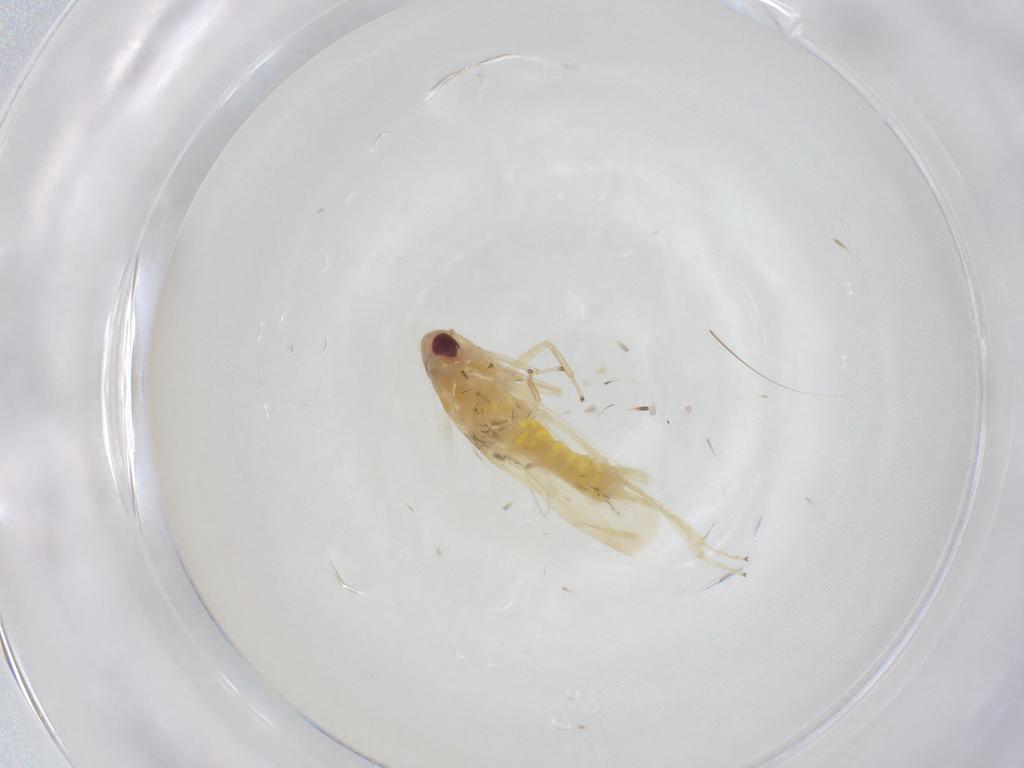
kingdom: Animalia
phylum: Arthropoda
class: Insecta
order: Hemiptera
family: Cicadellidae
